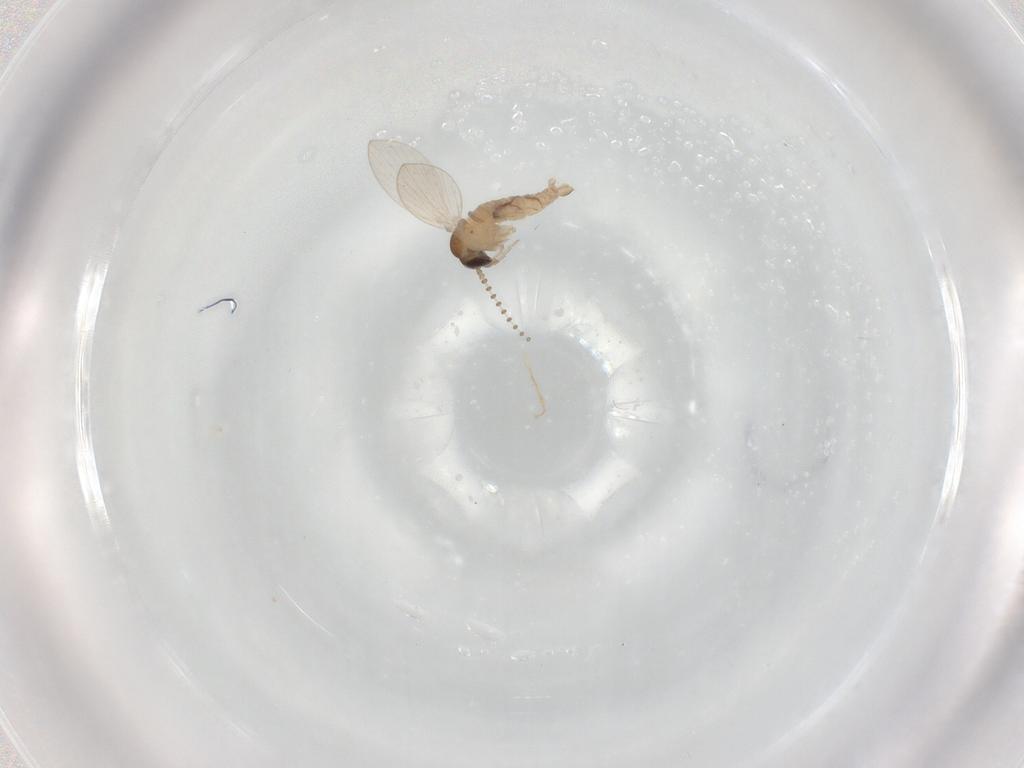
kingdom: Animalia
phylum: Arthropoda
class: Insecta
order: Diptera
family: Psychodidae
